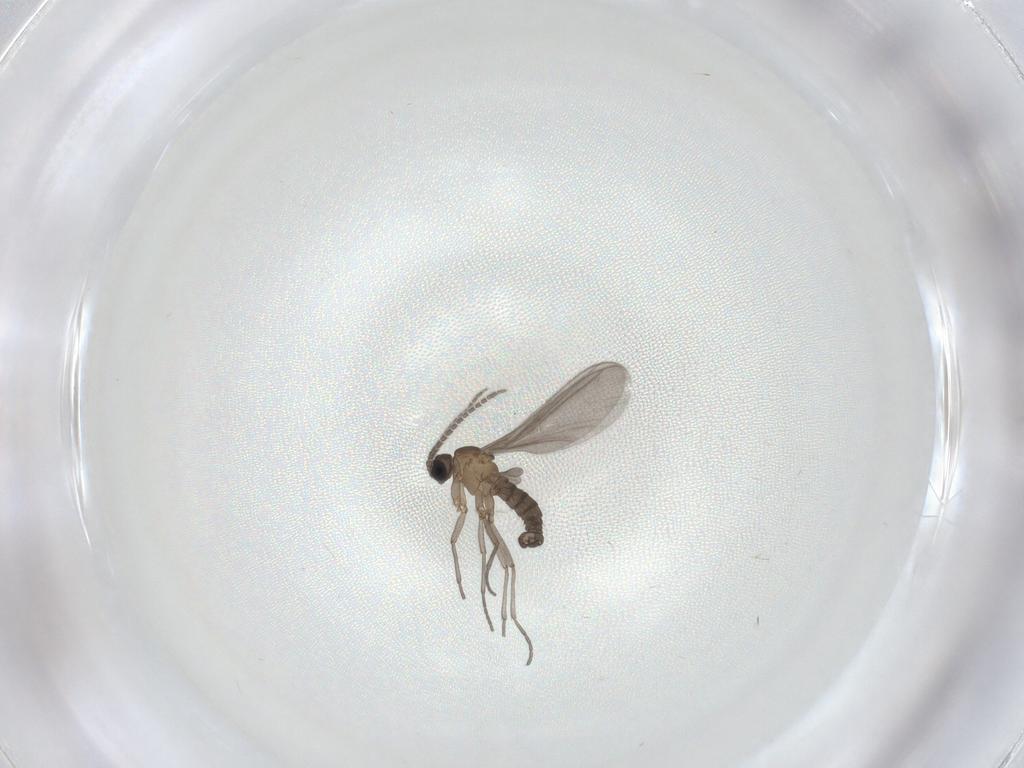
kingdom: Animalia
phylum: Arthropoda
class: Insecta
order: Diptera
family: Sciaridae
